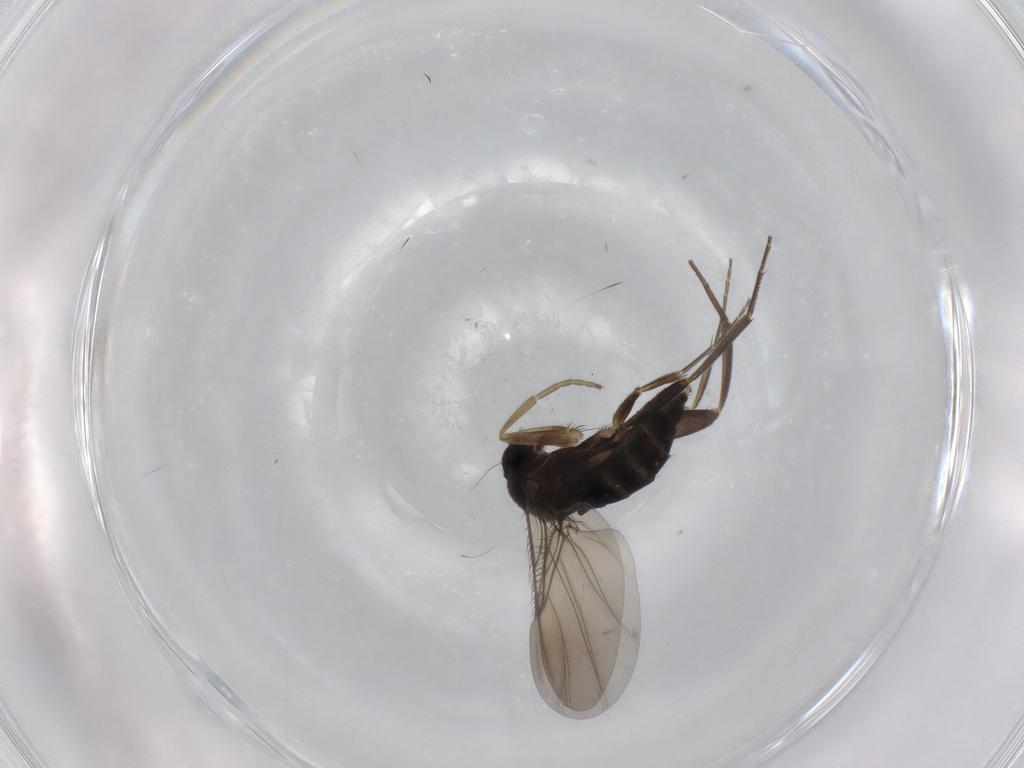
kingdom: Animalia
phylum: Arthropoda
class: Insecta
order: Diptera
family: Phoridae
